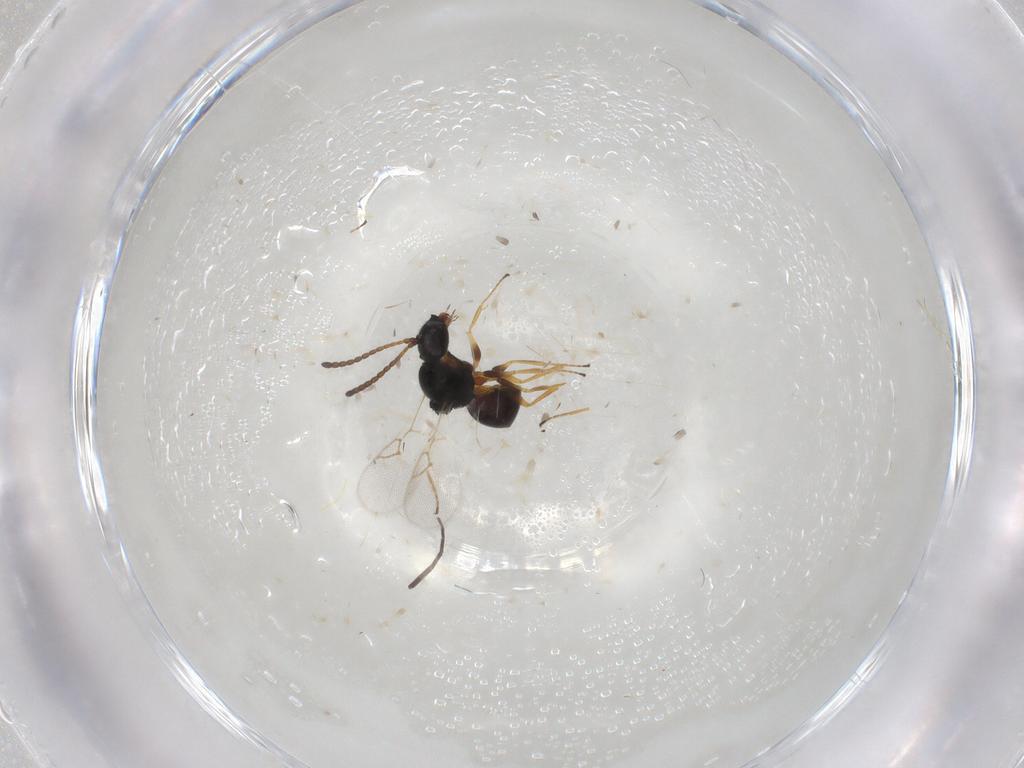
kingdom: Animalia
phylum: Arthropoda
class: Insecta
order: Hymenoptera
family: Figitidae
